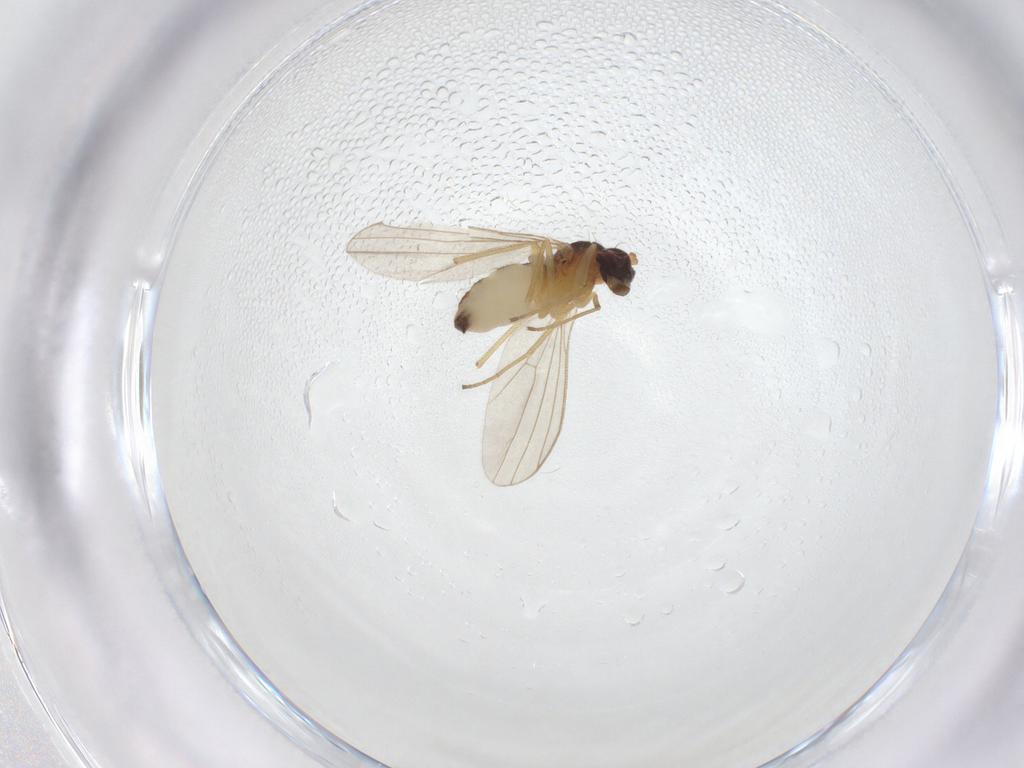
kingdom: Animalia
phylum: Arthropoda
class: Insecta
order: Diptera
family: Dolichopodidae
